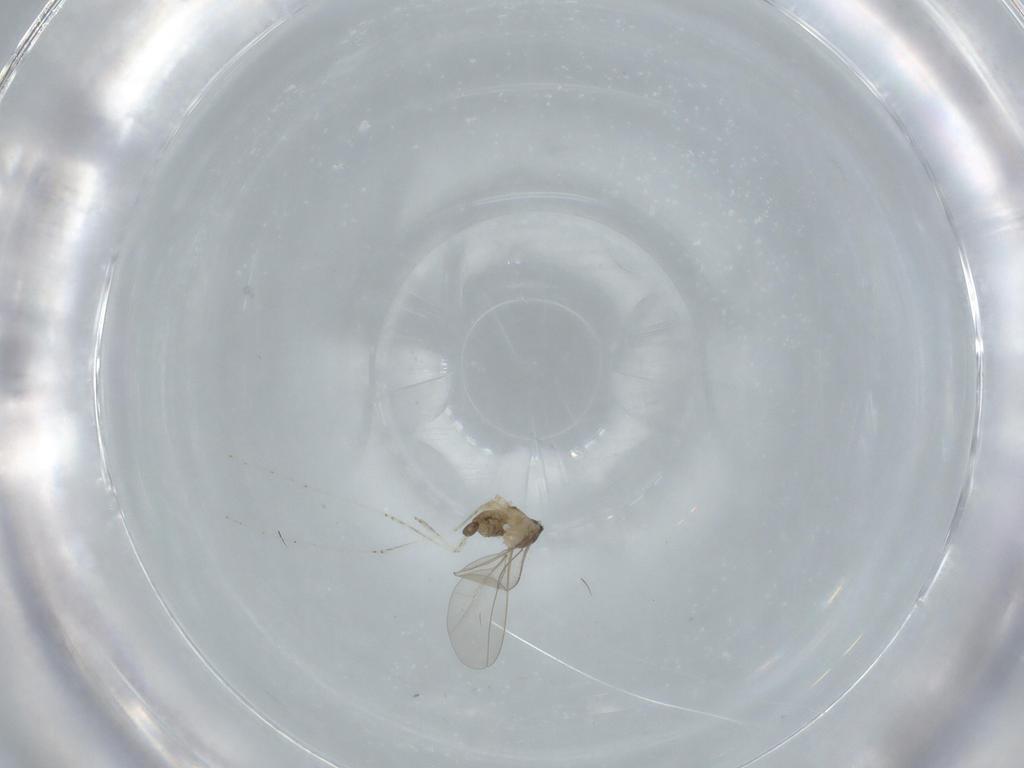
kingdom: Animalia
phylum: Arthropoda
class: Insecta
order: Diptera
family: Cecidomyiidae
